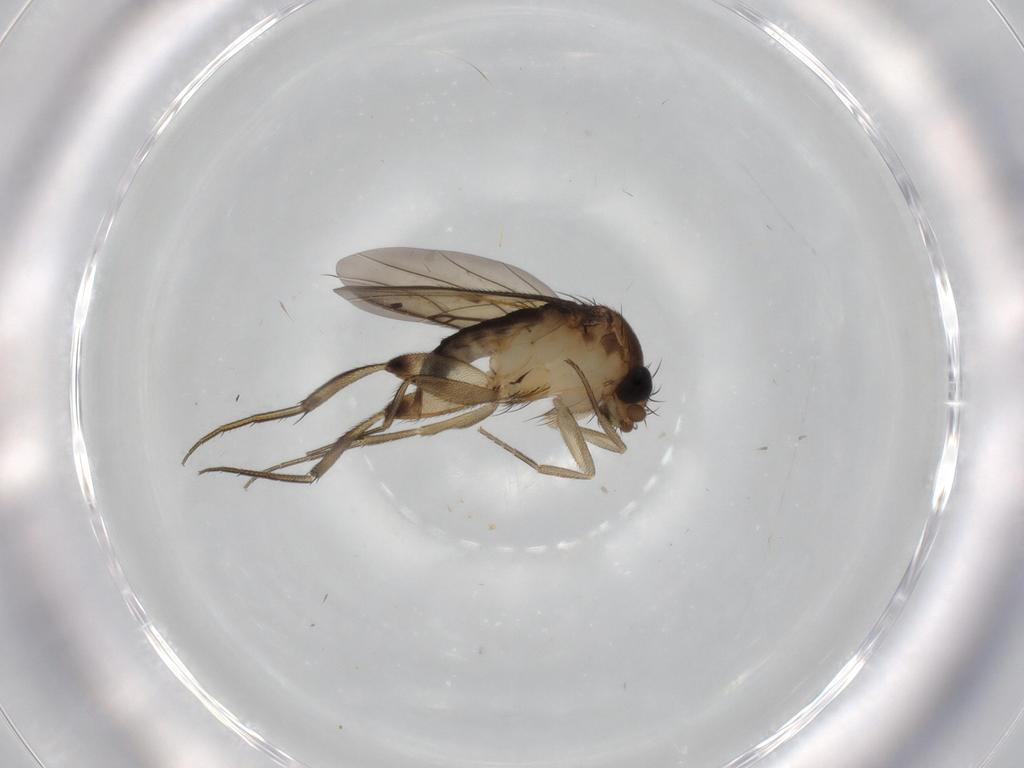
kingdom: Animalia
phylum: Arthropoda
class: Insecta
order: Diptera
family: Phoridae
